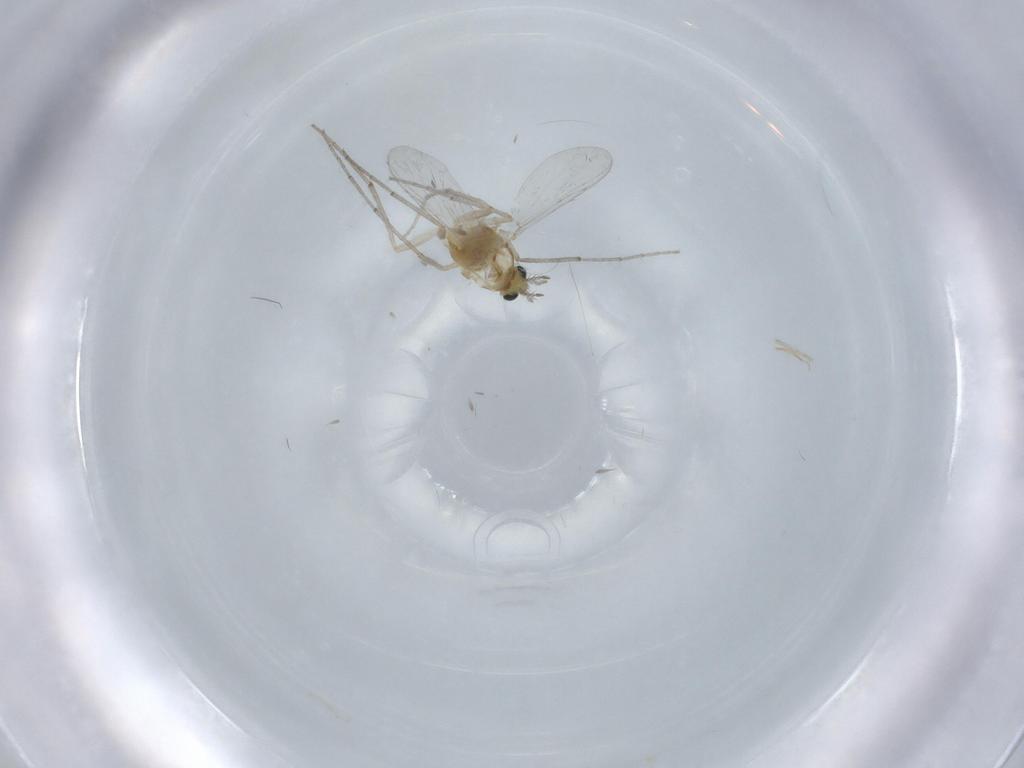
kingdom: Animalia
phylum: Arthropoda
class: Insecta
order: Diptera
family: Chironomidae
